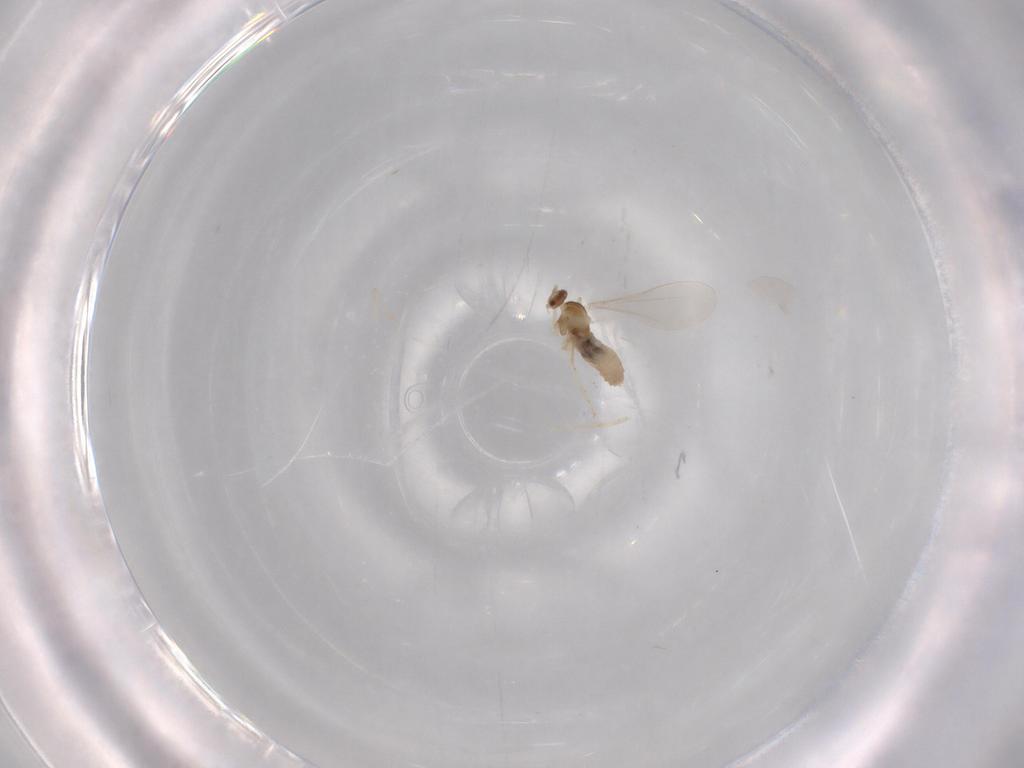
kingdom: Animalia
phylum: Arthropoda
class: Insecta
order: Diptera
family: Cecidomyiidae
